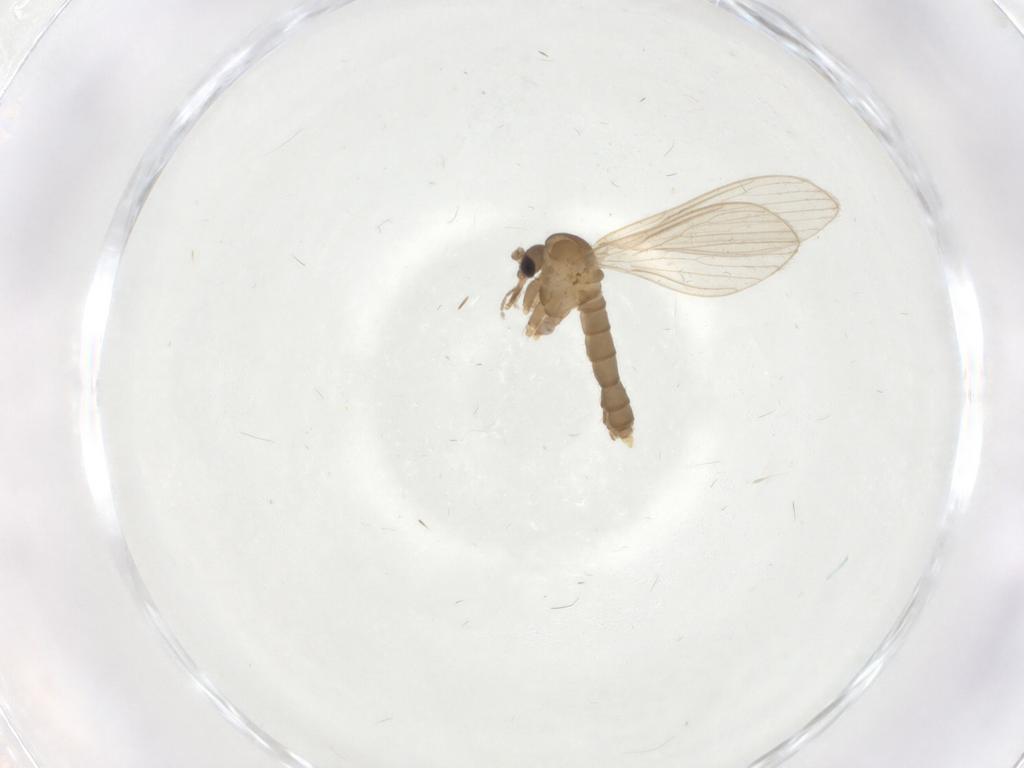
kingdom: Animalia
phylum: Arthropoda
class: Insecta
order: Diptera
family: Psychodidae
